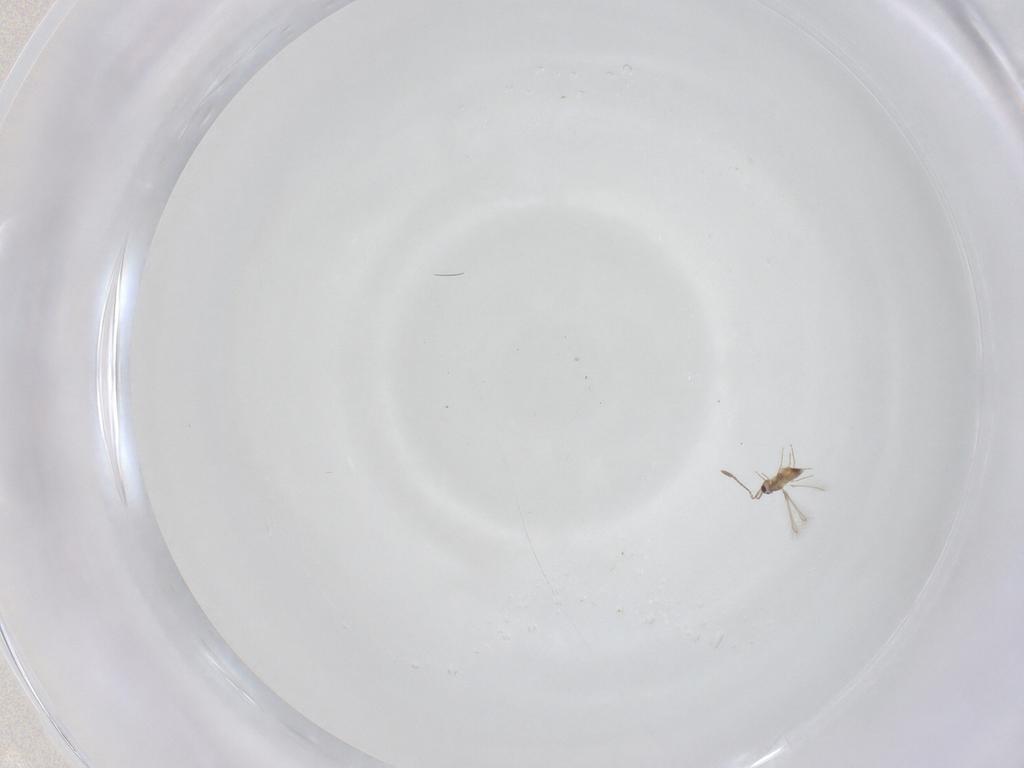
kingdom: Animalia
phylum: Arthropoda
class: Insecta
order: Hymenoptera
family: Mymaridae
